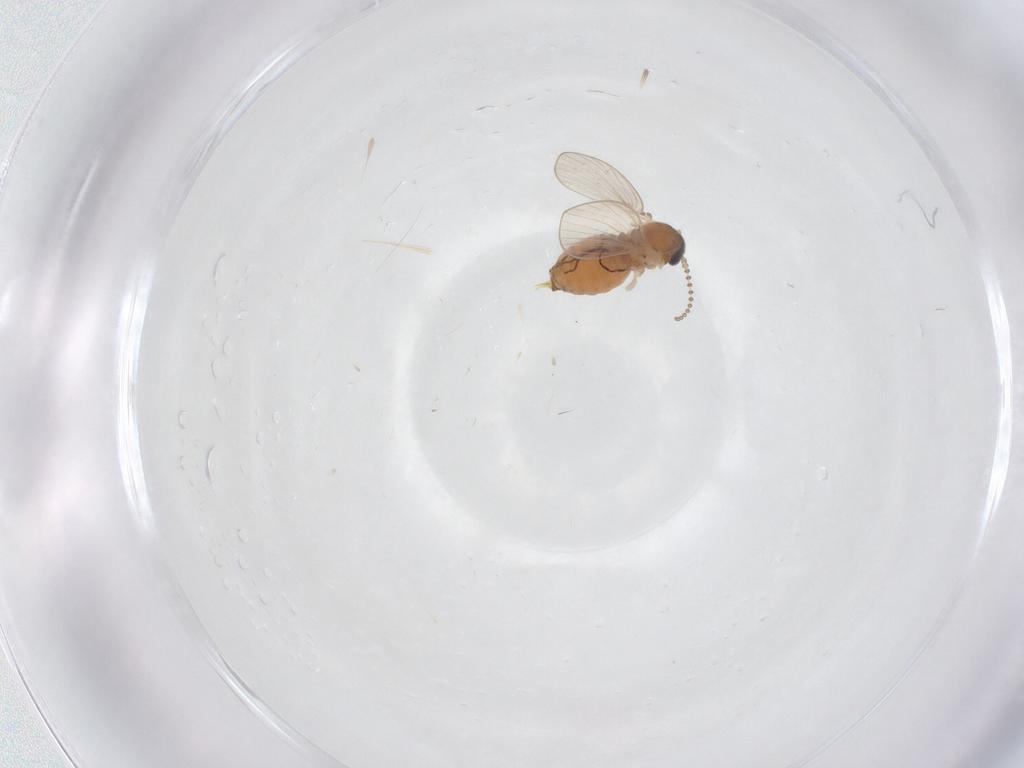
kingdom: Animalia
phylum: Arthropoda
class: Insecta
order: Diptera
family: Psychodidae
